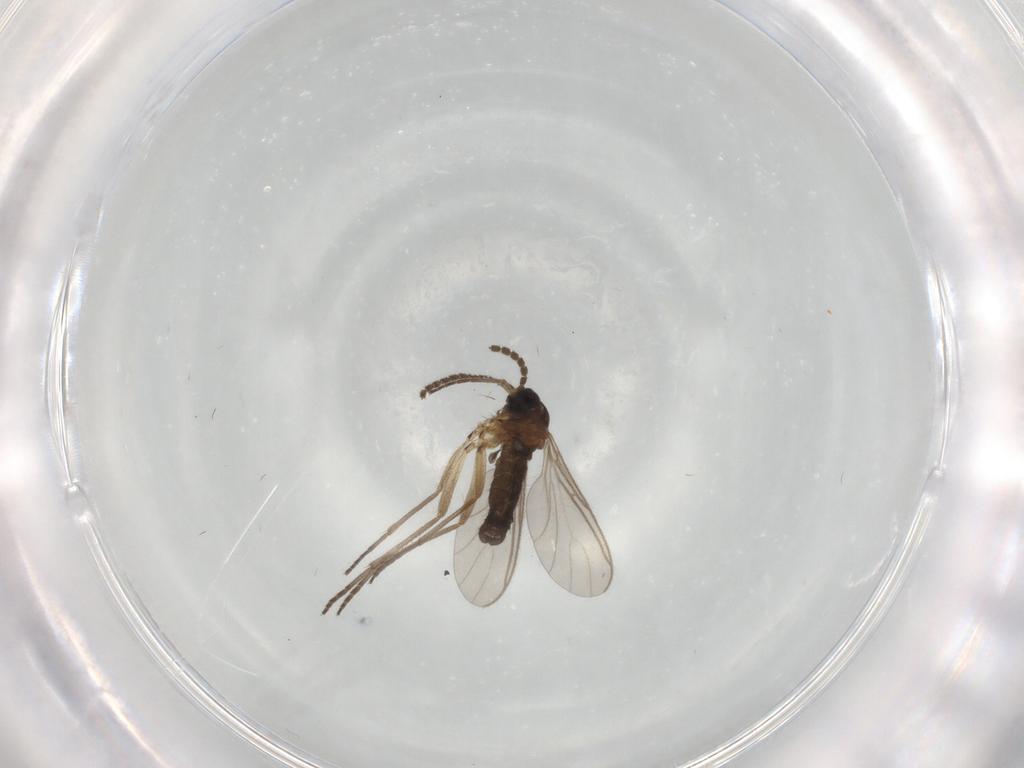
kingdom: Animalia
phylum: Arthropoda
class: Insecta
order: Diptera
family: Sciaridae
